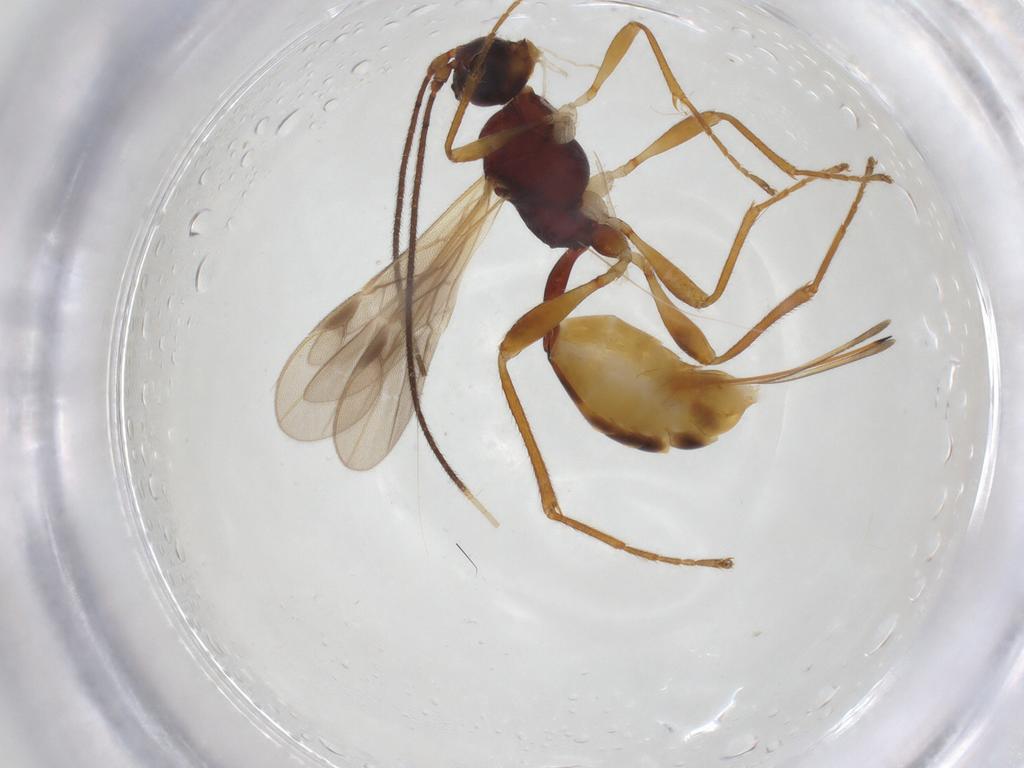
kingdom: Animalia
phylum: Arthropoda
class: Insecta
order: Hymenoptera
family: Braconidae
